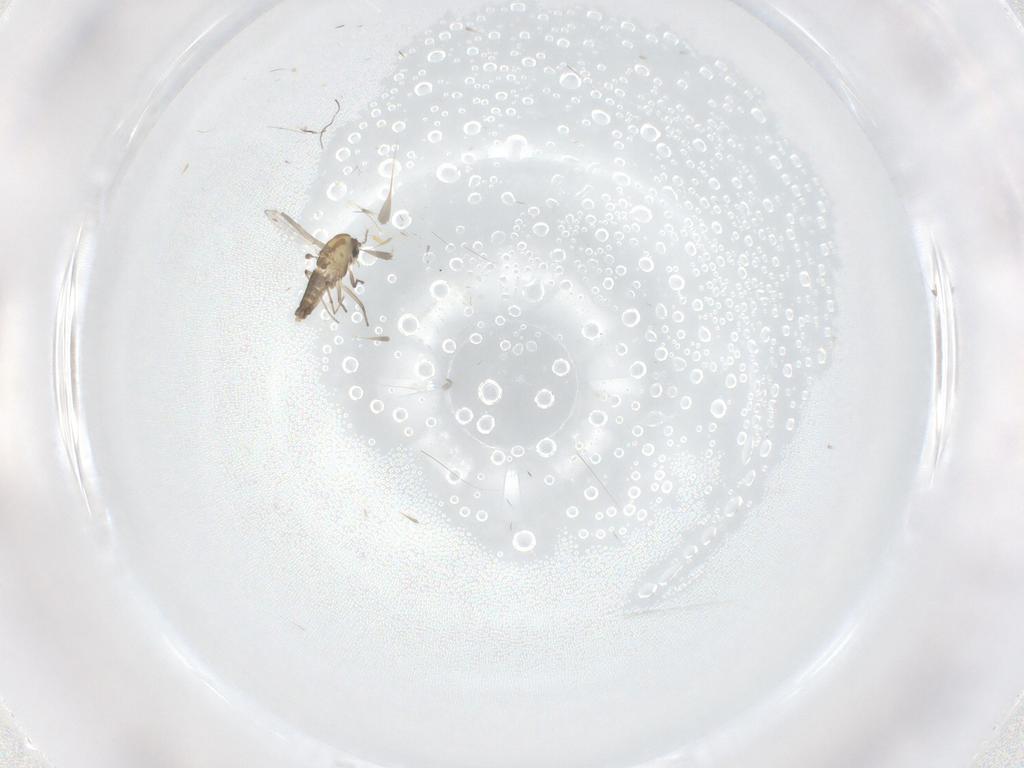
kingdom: Animalia
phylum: Arthropoda
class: Insecta
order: Diptera
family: Chironomidae
